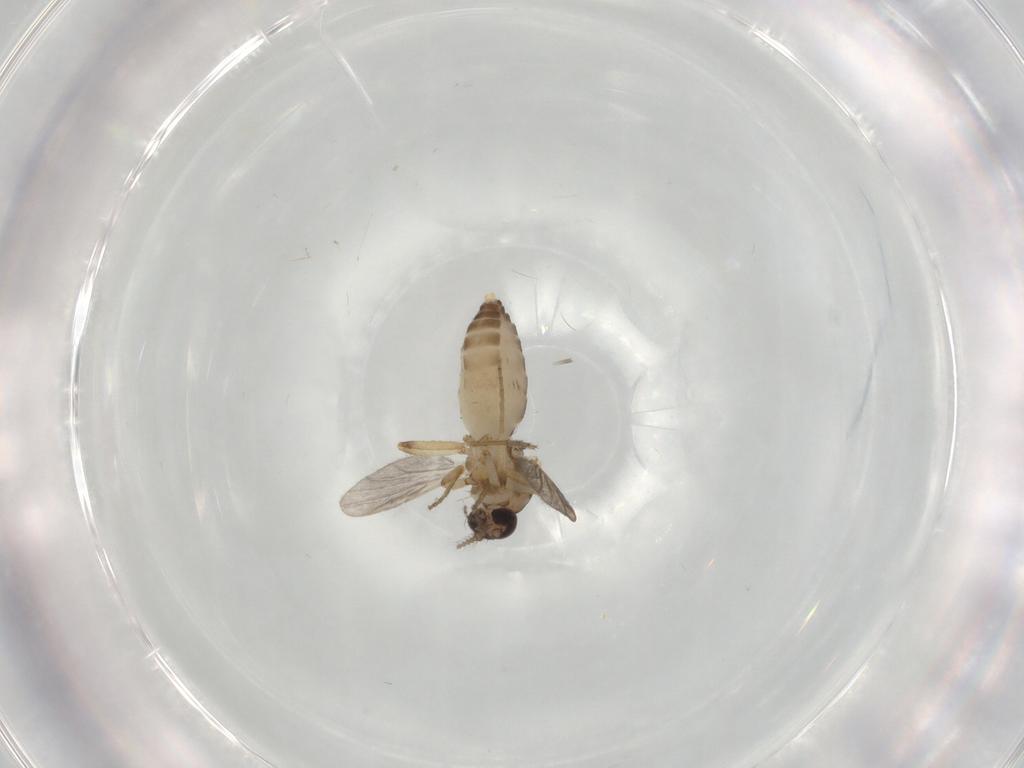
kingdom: Animalia
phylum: Arthropoda
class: Insecta
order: Diptera
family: Ceratopogonidae
